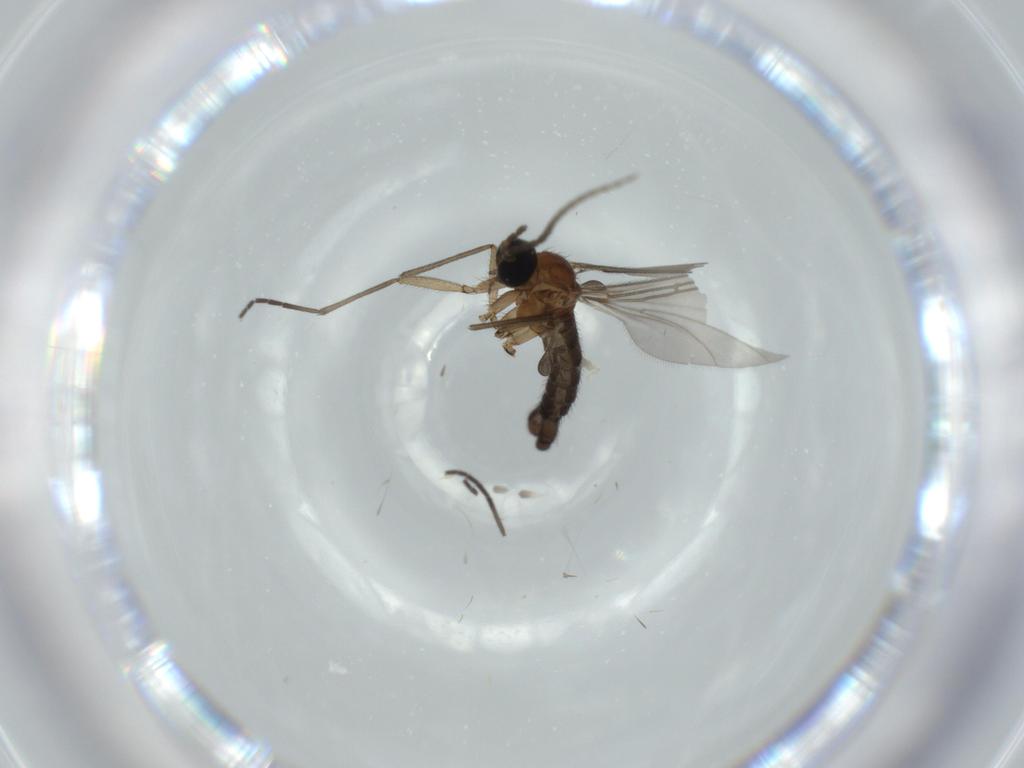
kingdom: Animalia
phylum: Arthropoda
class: Insecta
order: Diptera
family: Sciaridae
